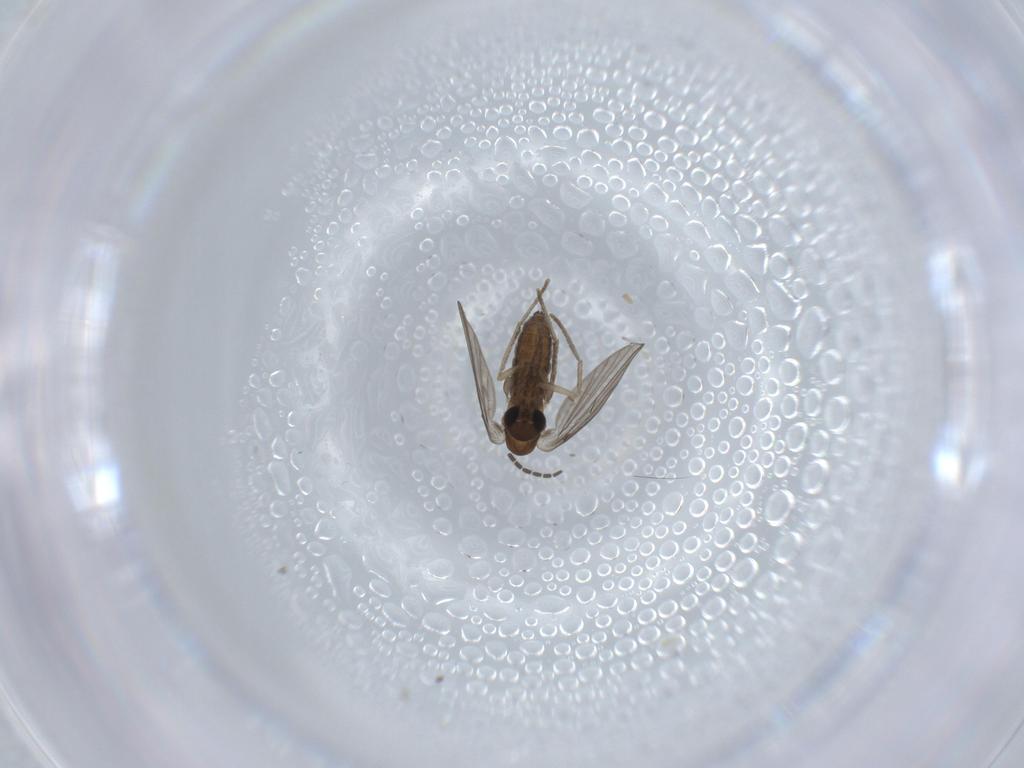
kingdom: Animalia
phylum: Arthropoda
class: Insecta
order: Diptera
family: Sciaridae
